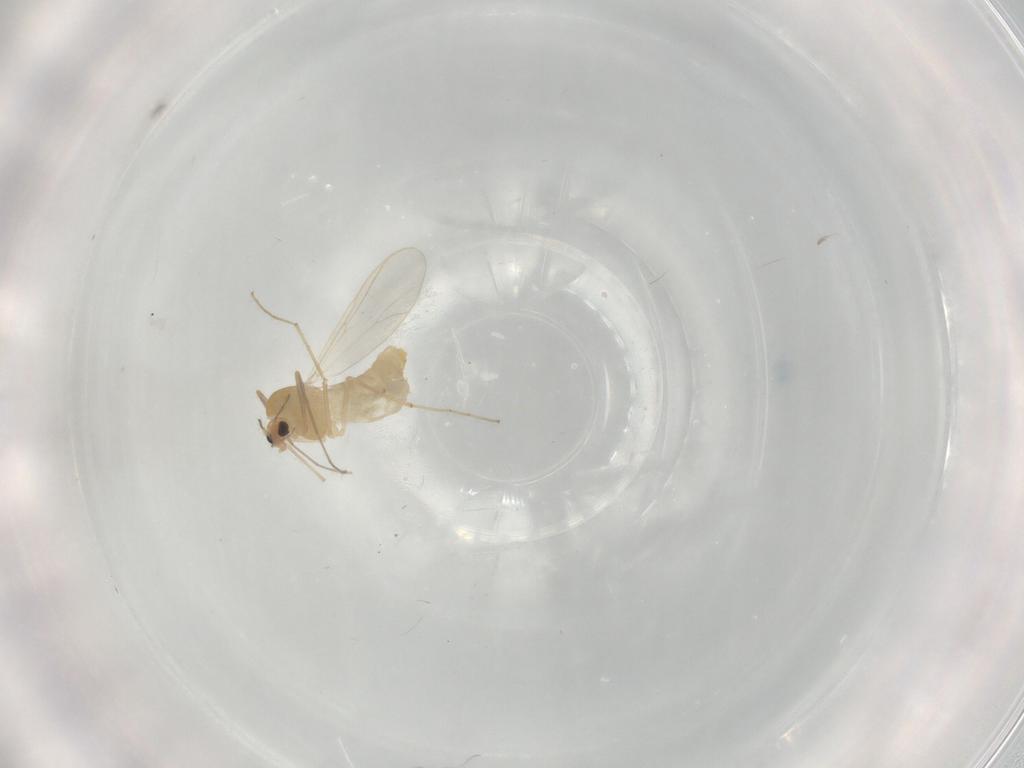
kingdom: Animalia
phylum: Arthropoda
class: Insecta
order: Diptera
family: Chironomidae
